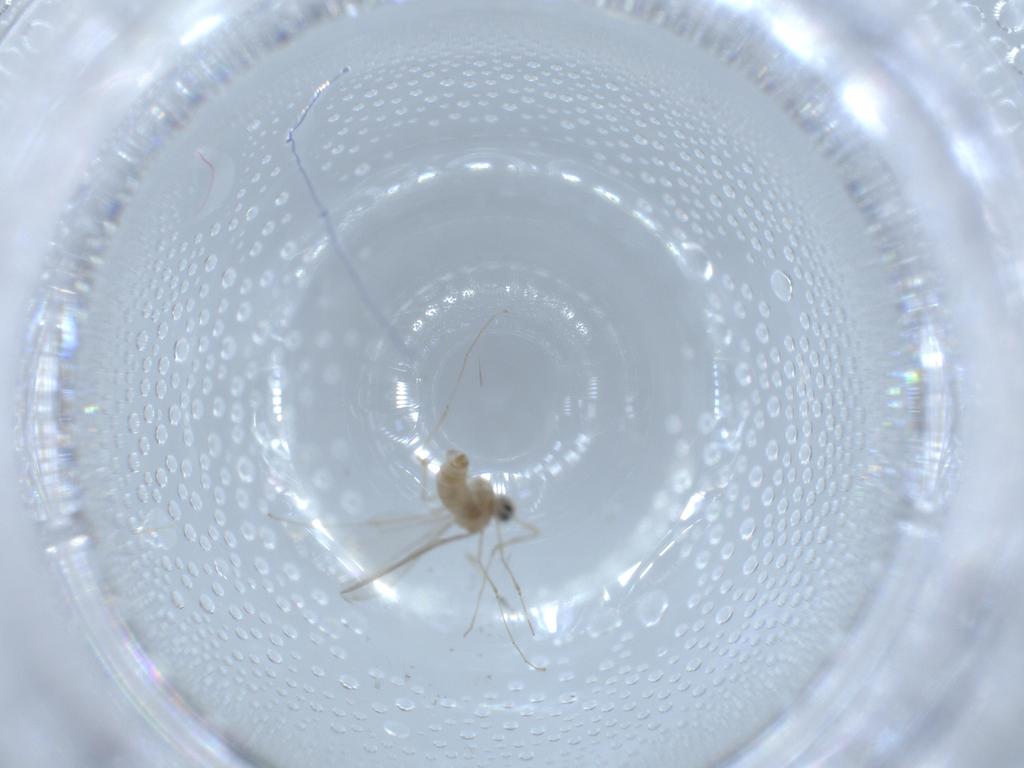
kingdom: Animalia
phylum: Arthropoda
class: Insecta
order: Diptera
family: Cecidomyiidae
